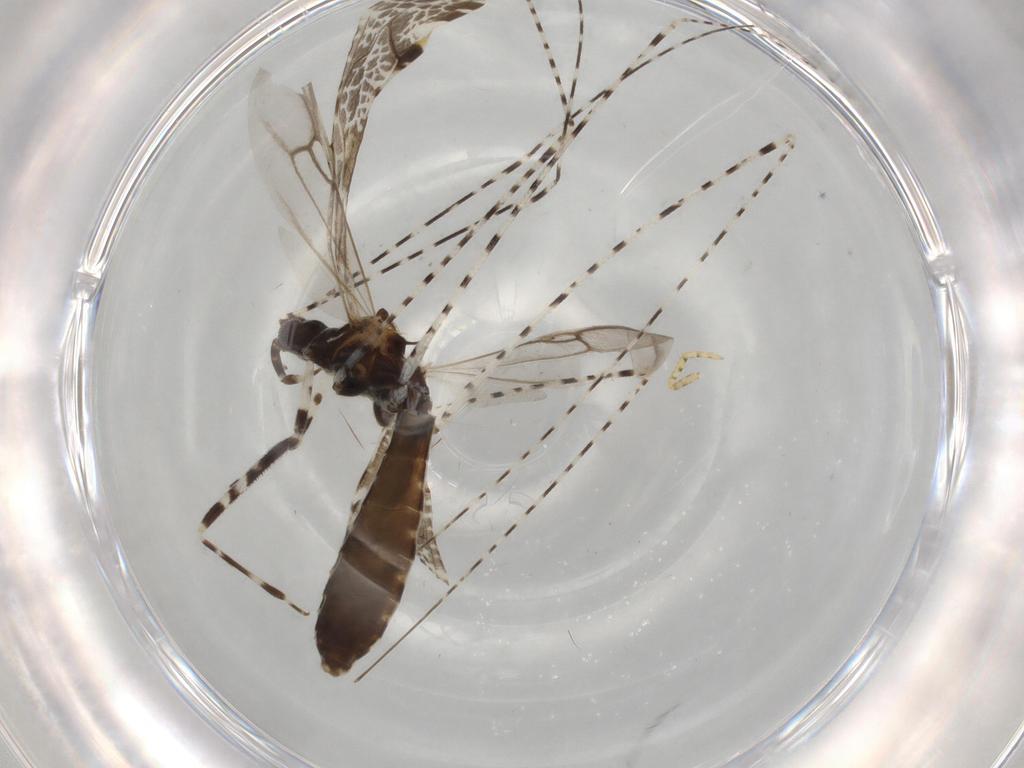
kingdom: Animalia
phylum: Arthropoda
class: Insecta
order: Hemiptera
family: Reduviidae
